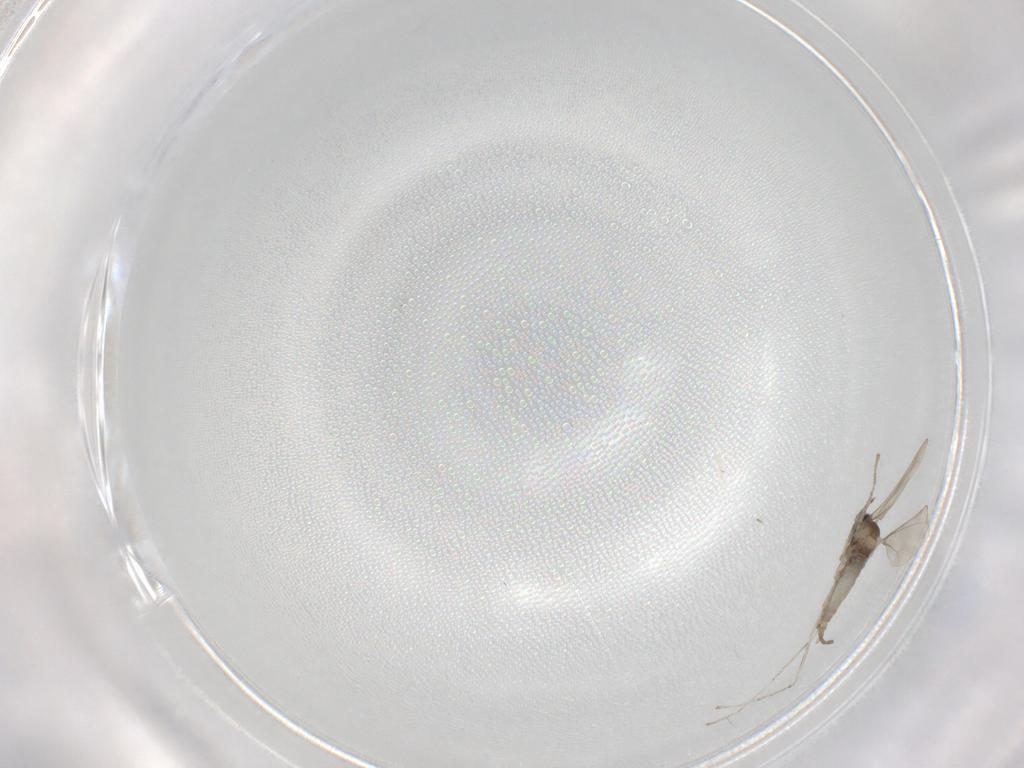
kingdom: Animalia
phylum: Arthropoda
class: Insecta
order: Diptera
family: Cecidomyiidae
